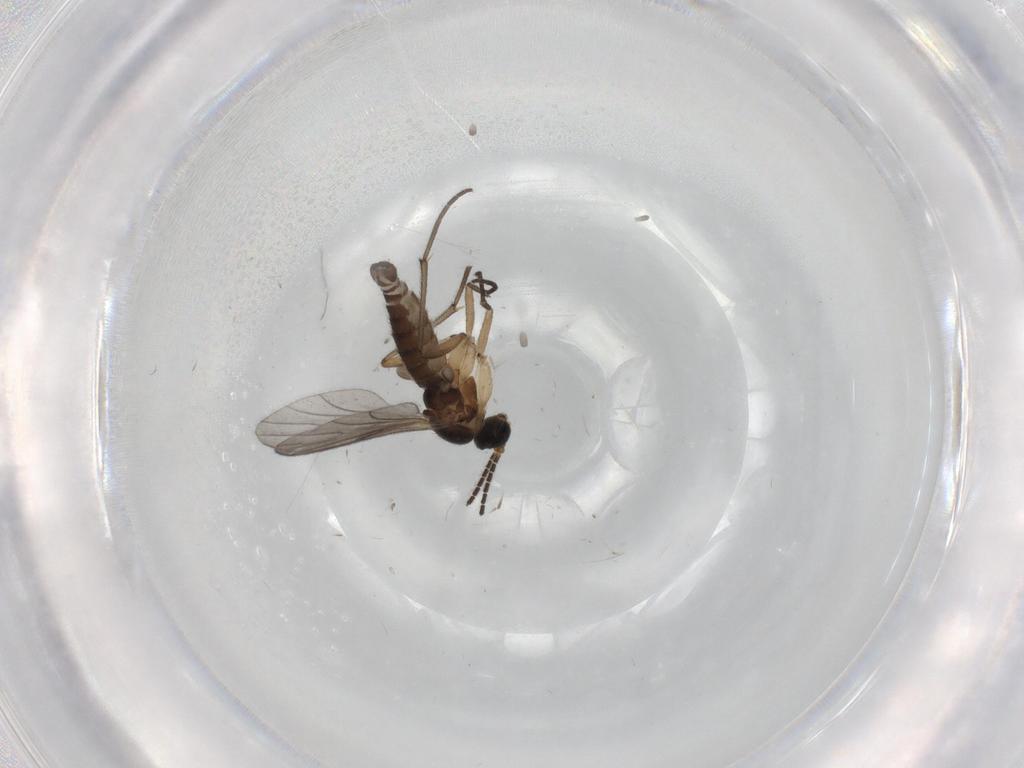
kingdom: Animalia
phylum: Arthropoda
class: Insecta
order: Diptera
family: Sciaridae
